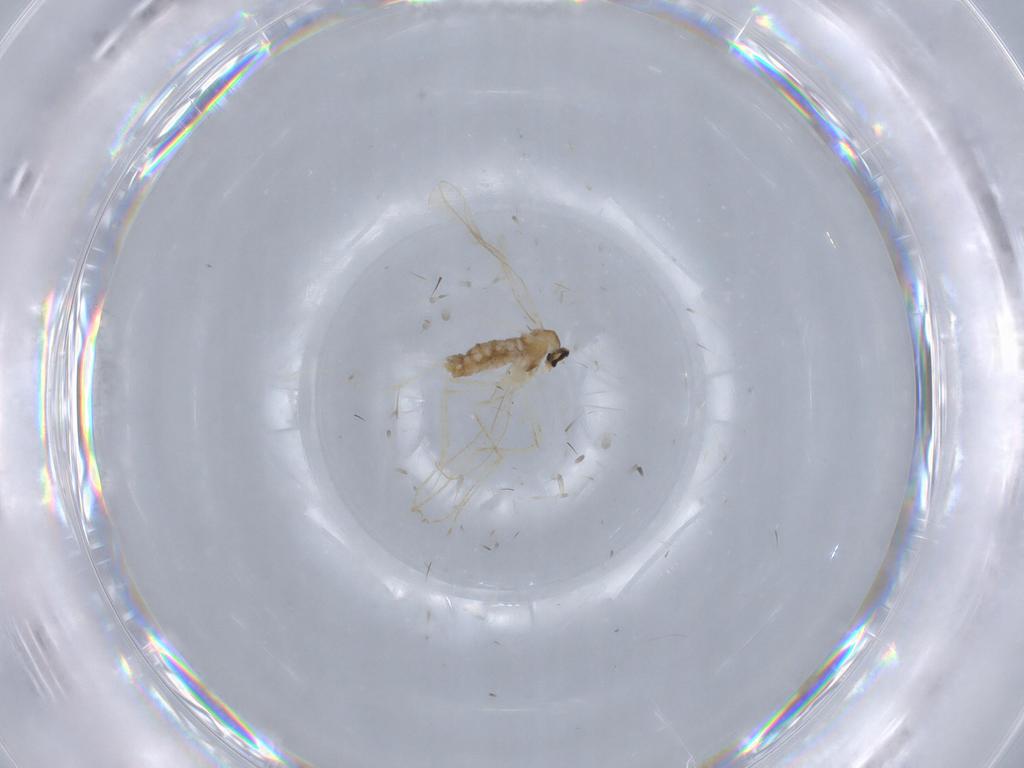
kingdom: Animalia
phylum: Arthropoda
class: Insecta
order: Diptera
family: Cecidomyiidae
